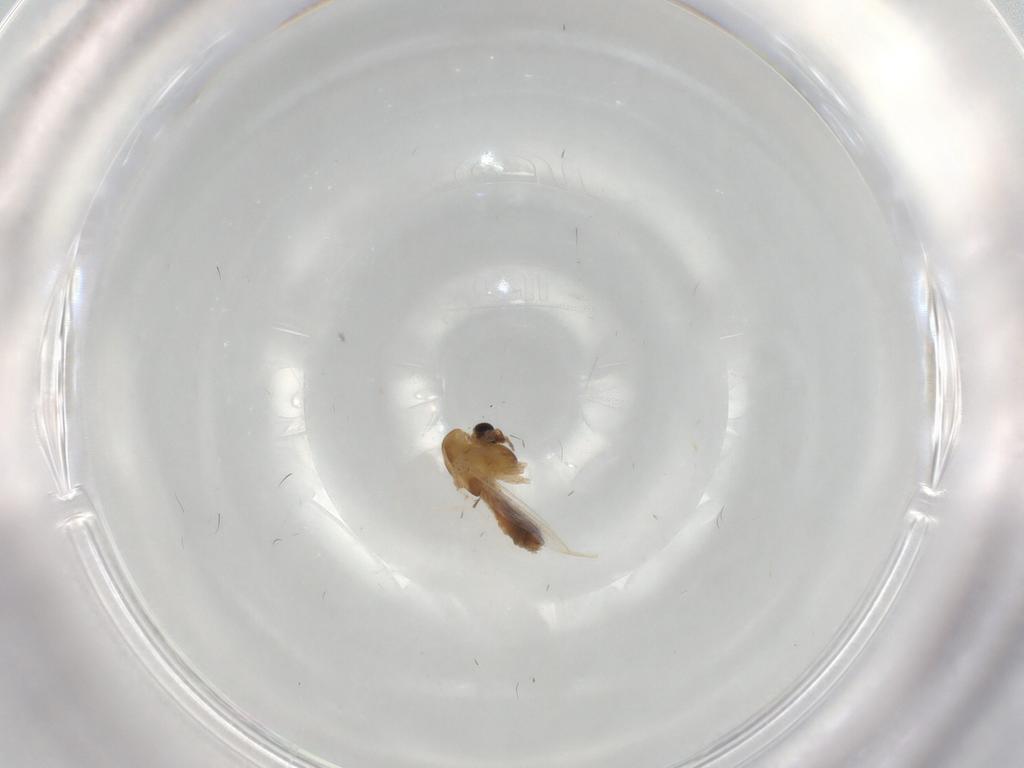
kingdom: Animalia
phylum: Arthropoda
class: Insecta
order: Diptera
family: Chironomidae
